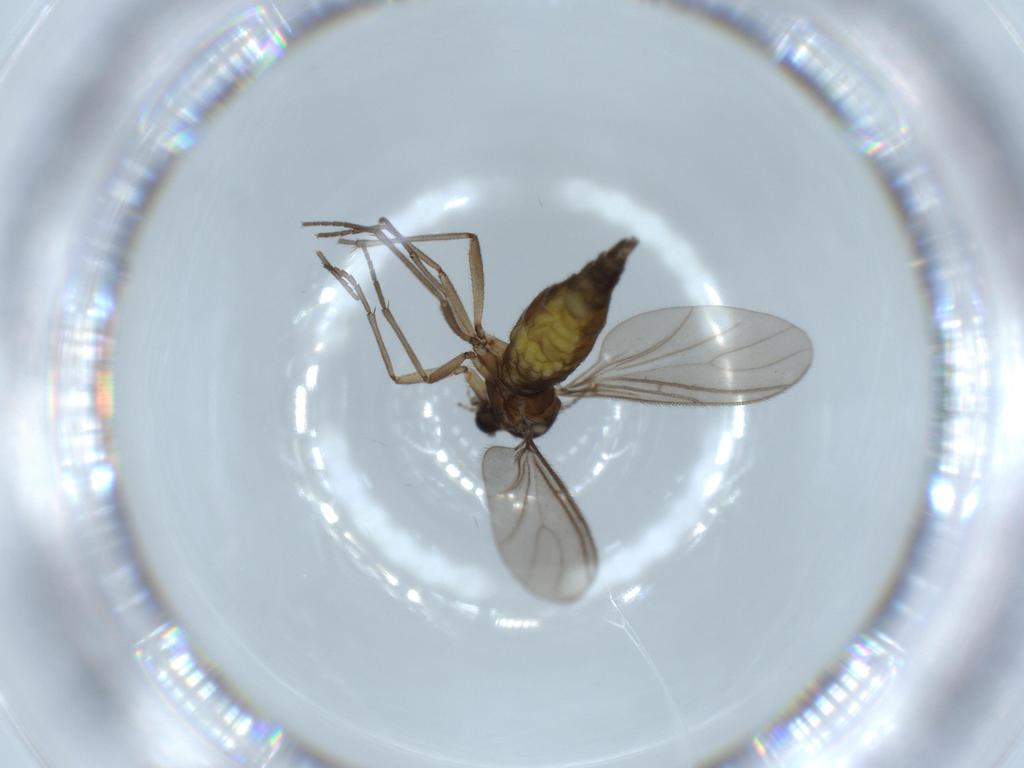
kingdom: Animalia
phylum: Arthropoda
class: Insecta
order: Diptera
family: Sciaridae
